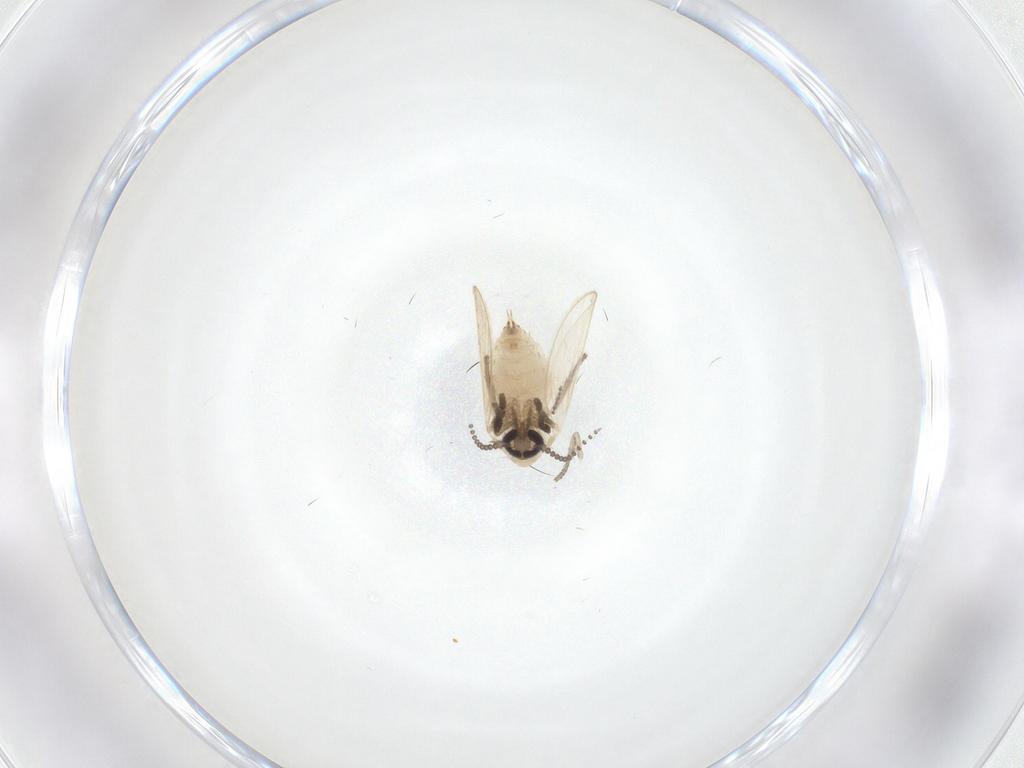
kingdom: Animalia
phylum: Arthropoda
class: Insecta
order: Diptera
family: Psychodidae
